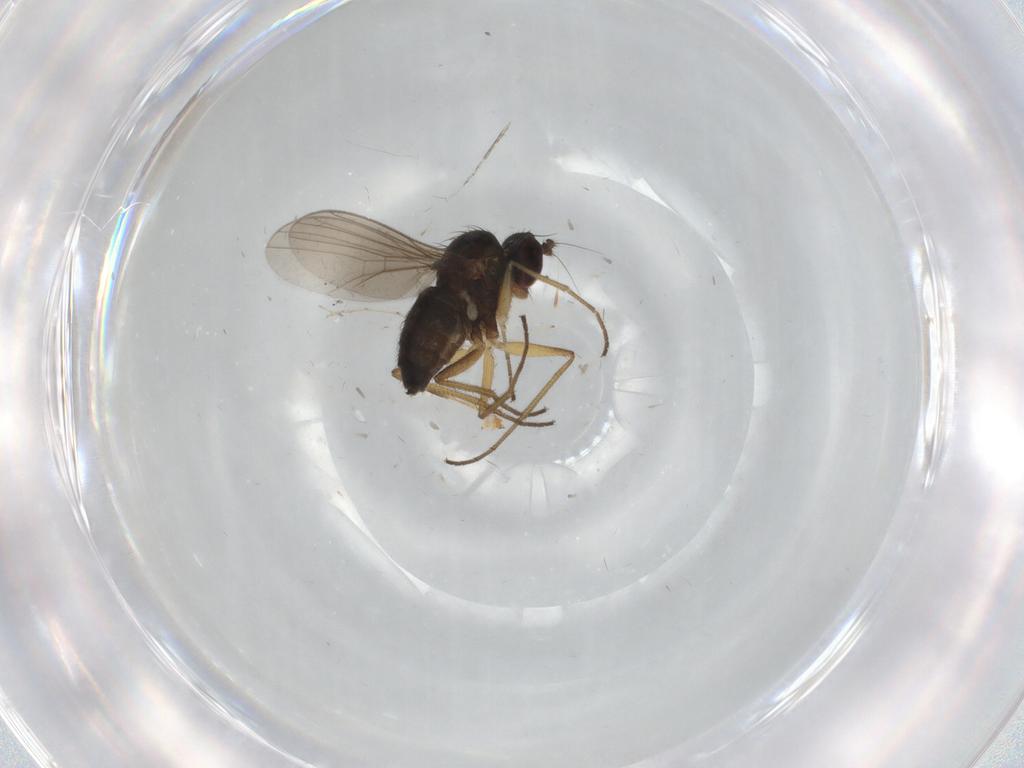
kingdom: Animalia
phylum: Arthropoda
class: Insecta
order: Diptera
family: Dolichopodidae
